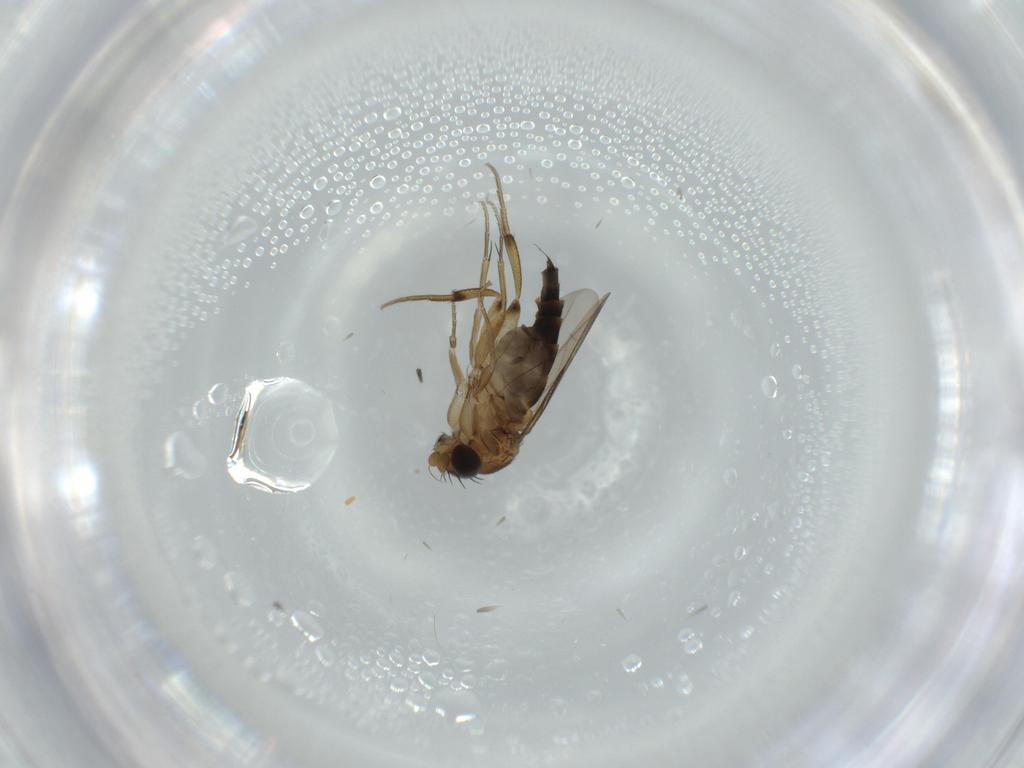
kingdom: Animalia
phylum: Arthropoda
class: Insecta
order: Diptera
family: Phoridae
